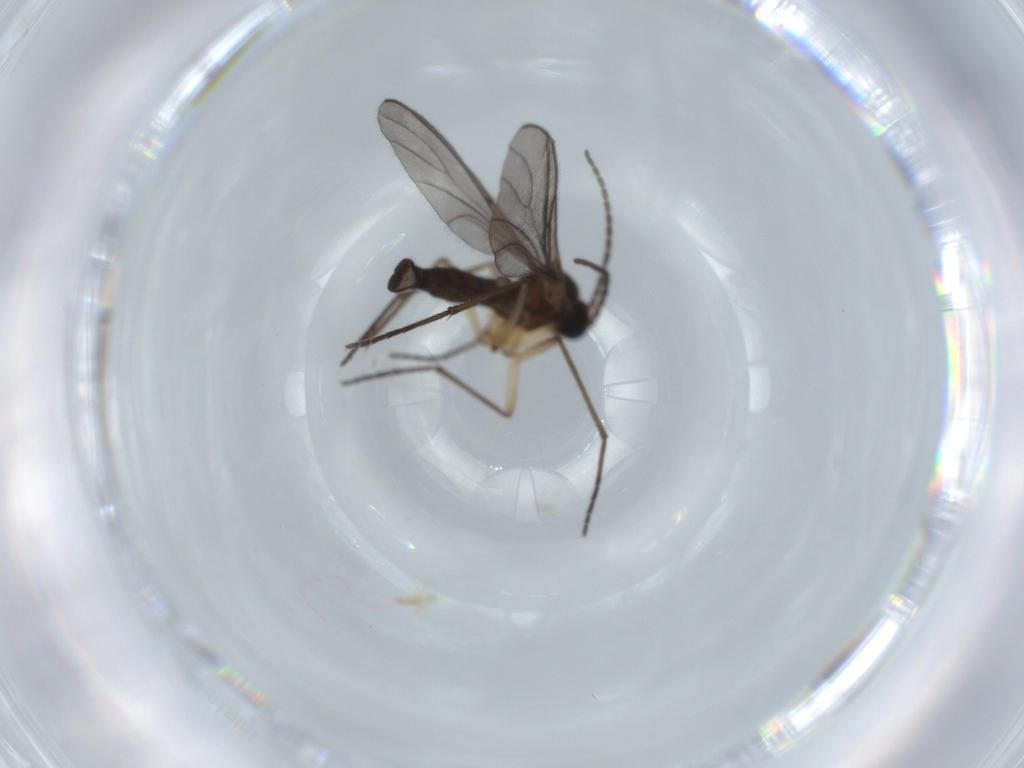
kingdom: Animalia
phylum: Arthropoda
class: Insecta
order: Diptera
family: Sciaridae
